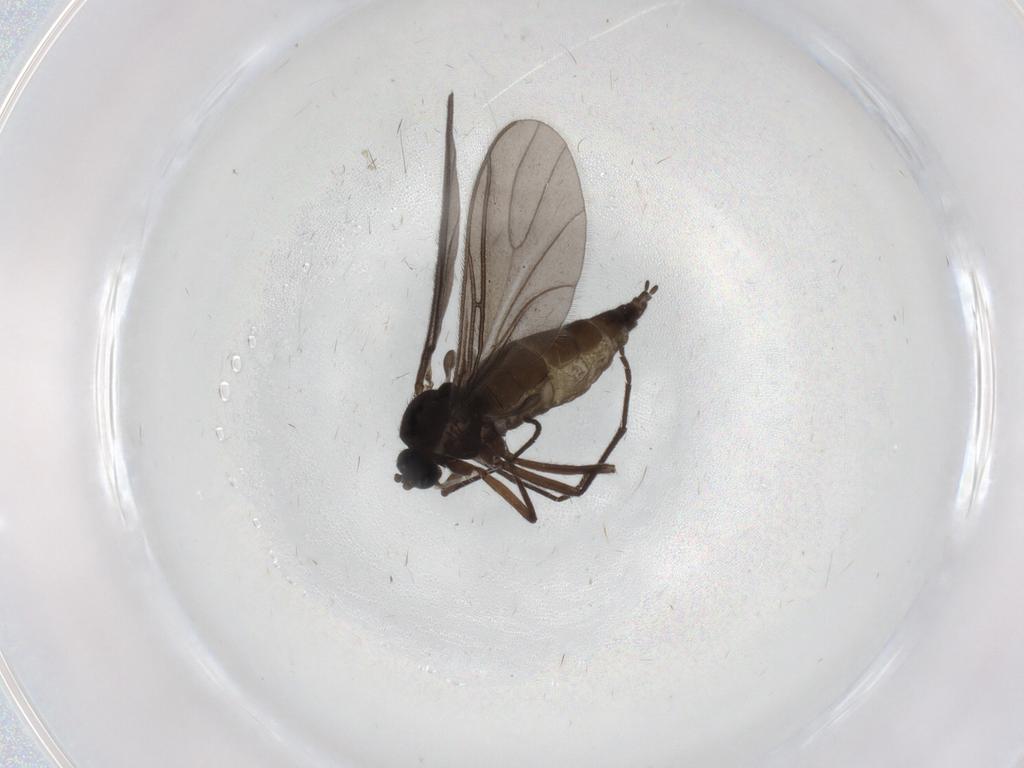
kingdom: Animalia
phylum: Arthropoda
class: Insecta
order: Diptera
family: Sciaridae
